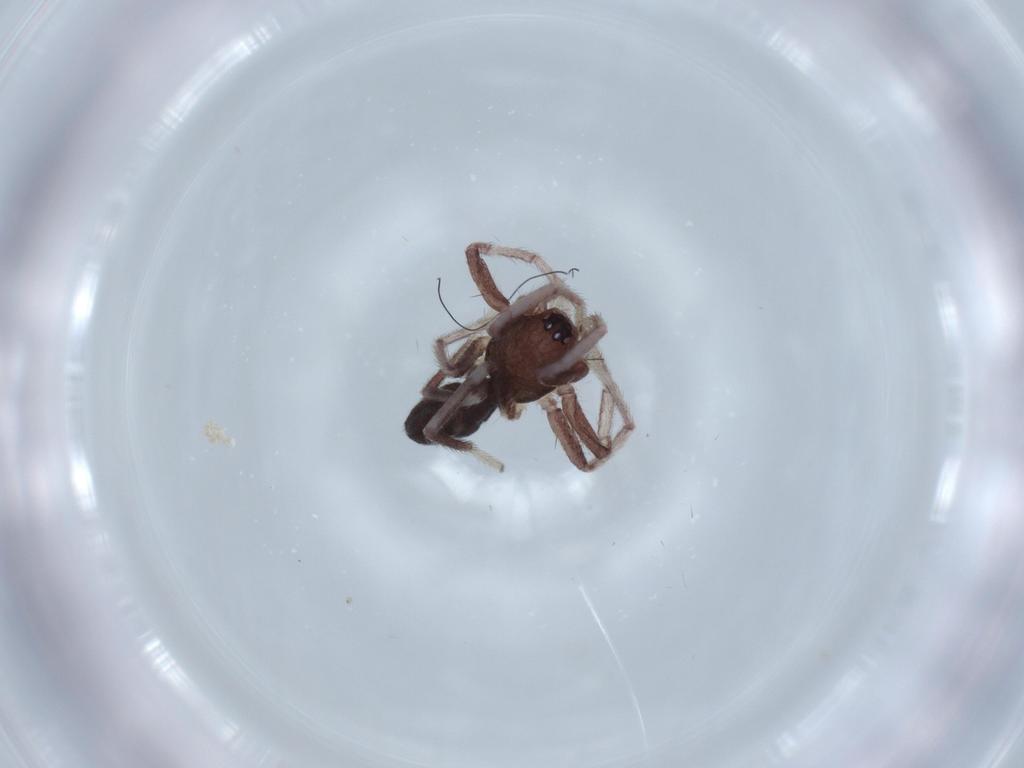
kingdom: Animalia
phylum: Arthropoda
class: Arachnida
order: Araneae
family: Corinnidae
